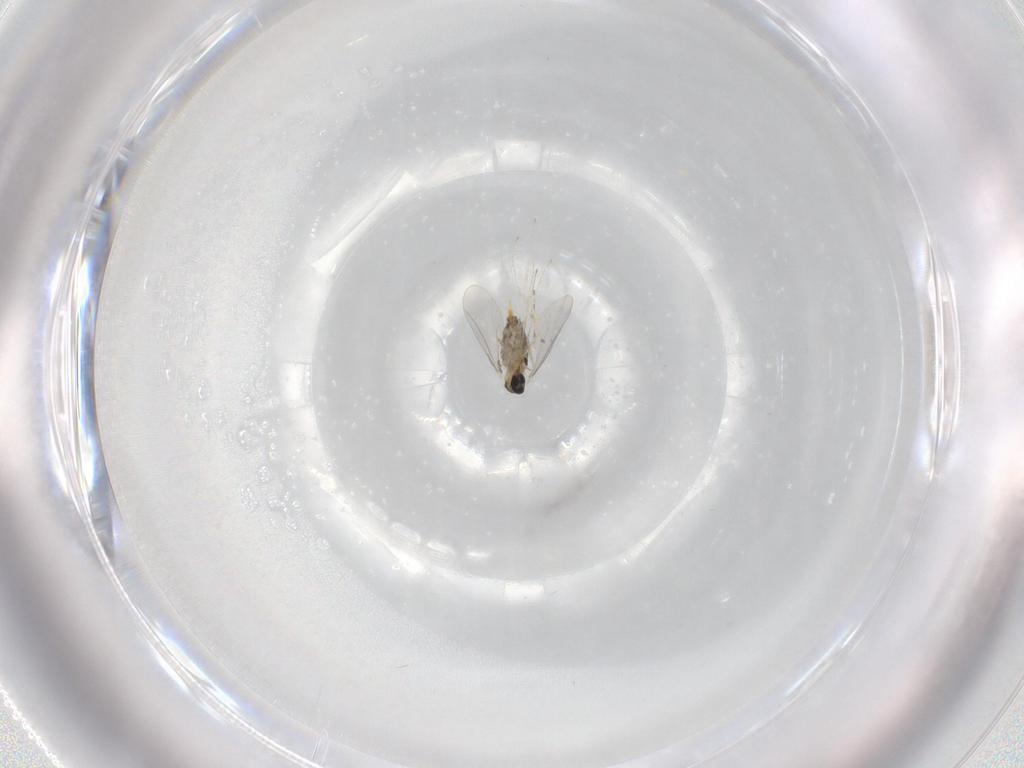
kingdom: Animalia
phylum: Arthropoda
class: Insecta
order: Diptera
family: Cecidomyiidae
